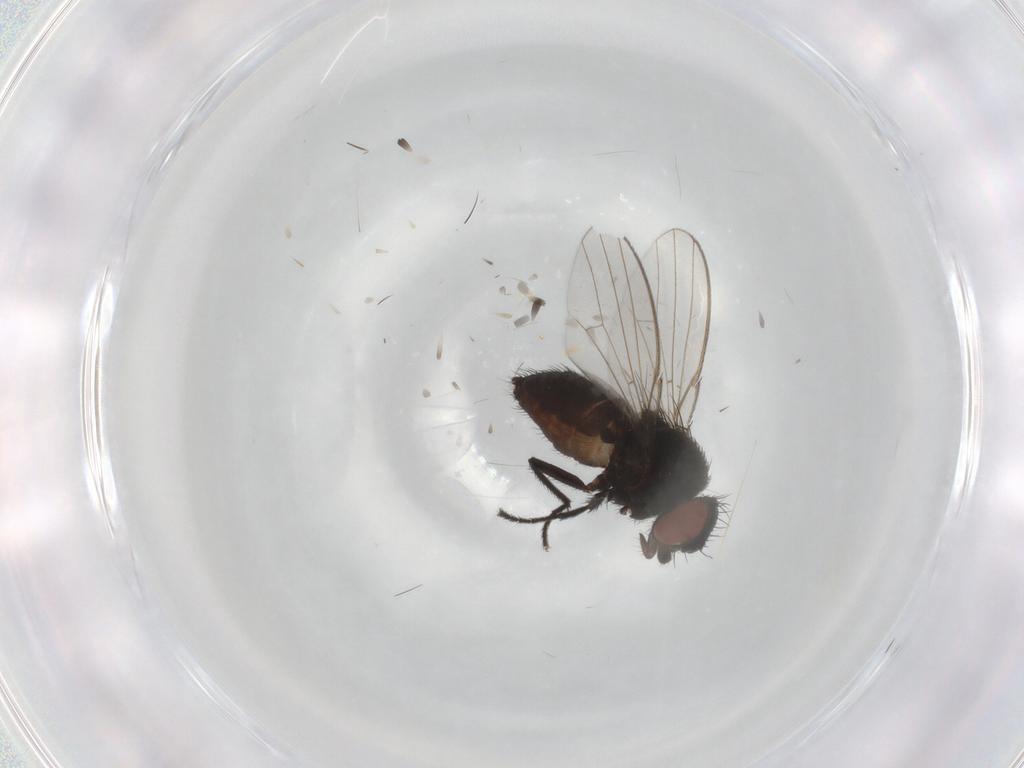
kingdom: Animalia
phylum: Arthropoda
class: Insecta
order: Diptera
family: Milichiidae
